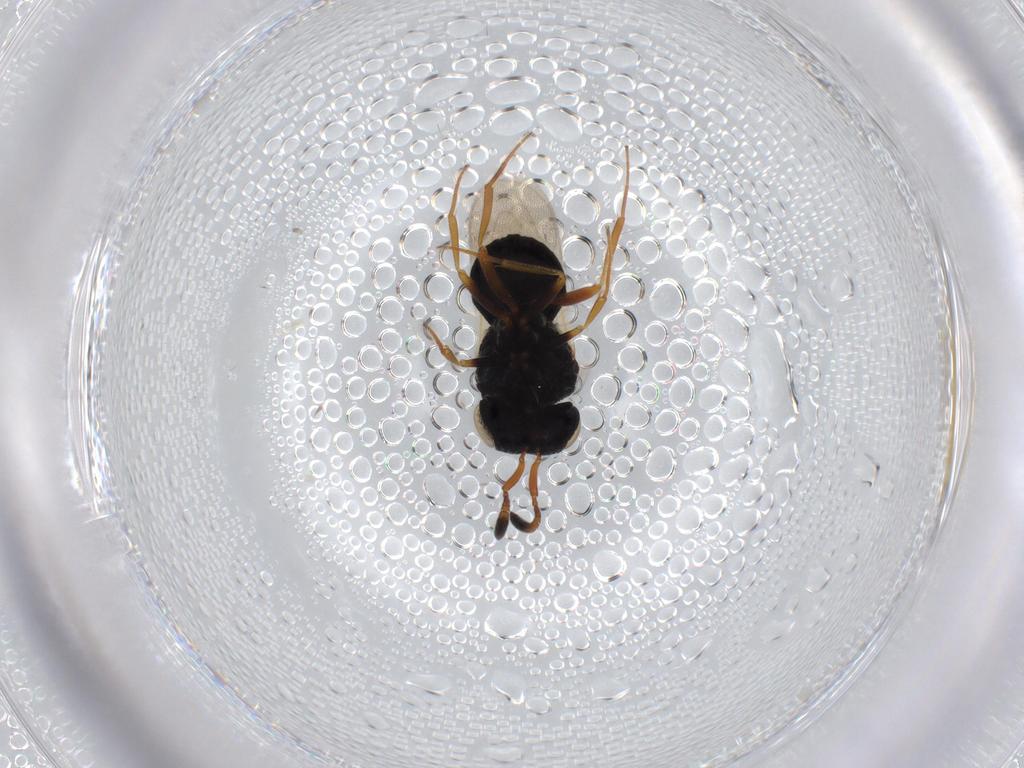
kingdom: Animalia
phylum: Arthropoda
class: Insecta
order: Hymenoptera
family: Scelionidae
